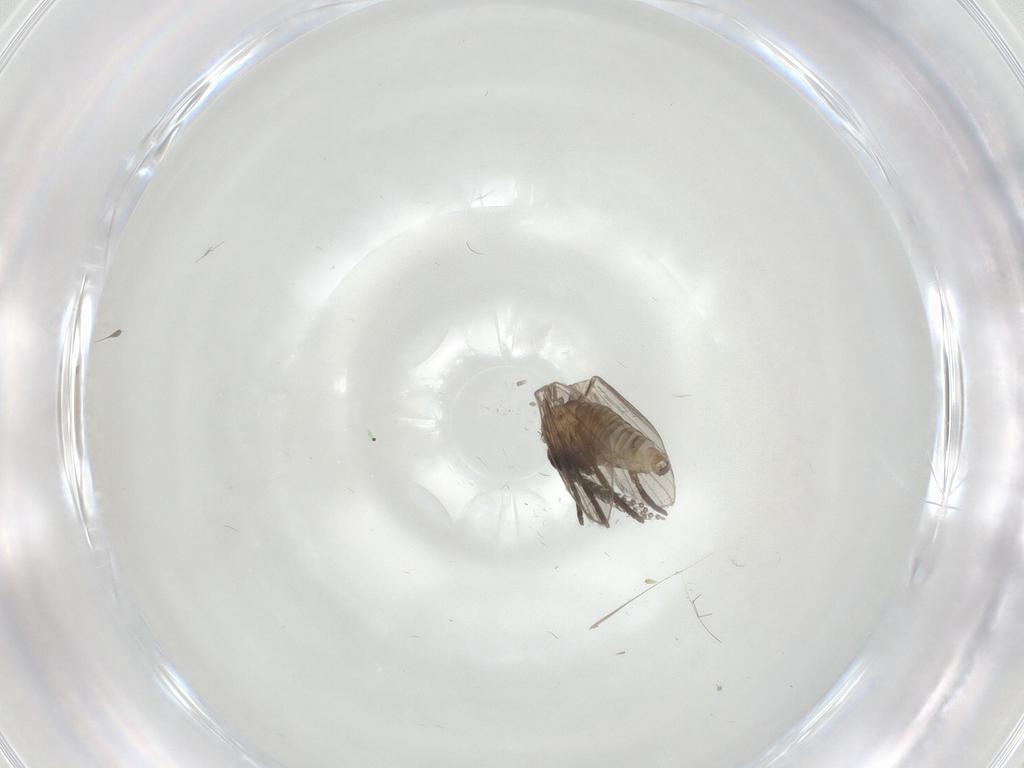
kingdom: Animalia
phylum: Arthropoda
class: Insecta
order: Diptera
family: Psychodidae
